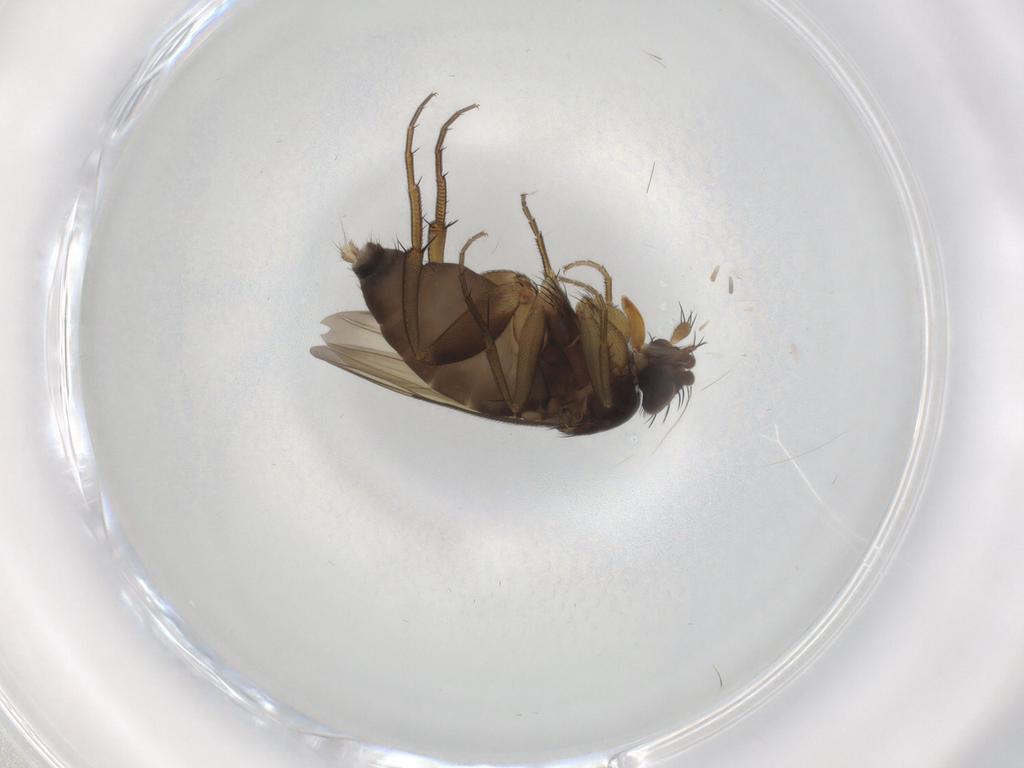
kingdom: Animalia
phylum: Arthropoda
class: Insecta
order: Diptera
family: Phoridae
